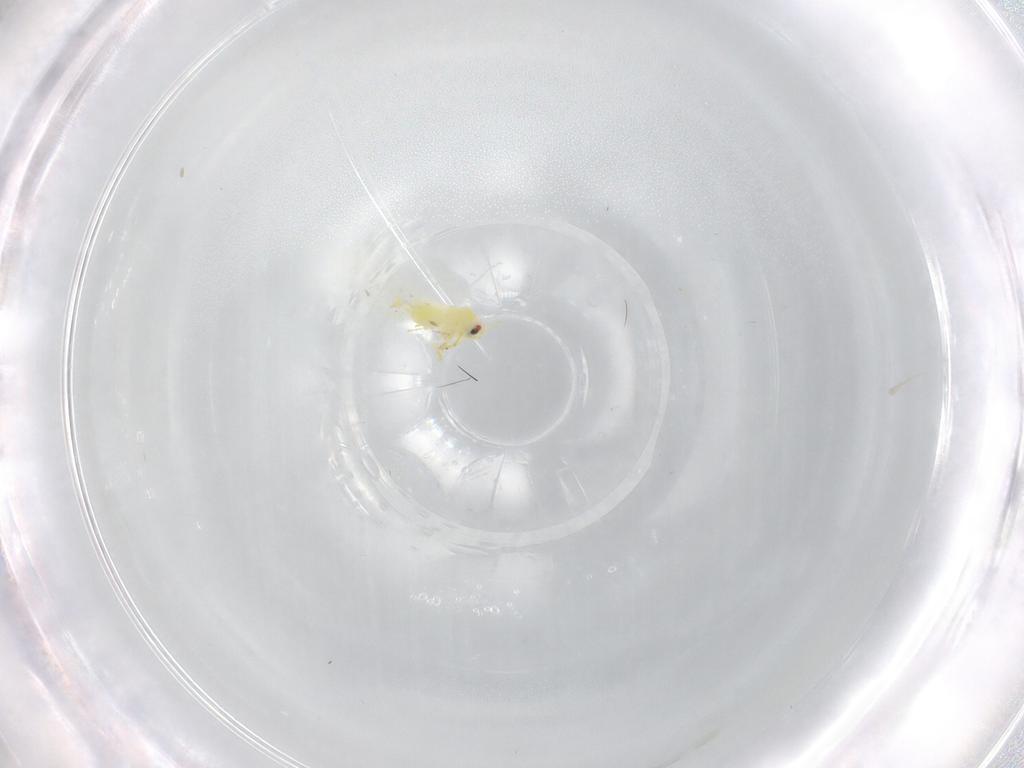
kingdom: Animalia
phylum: Arthropoda
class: Insecta
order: Hemiptera
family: Aleyrodidae
